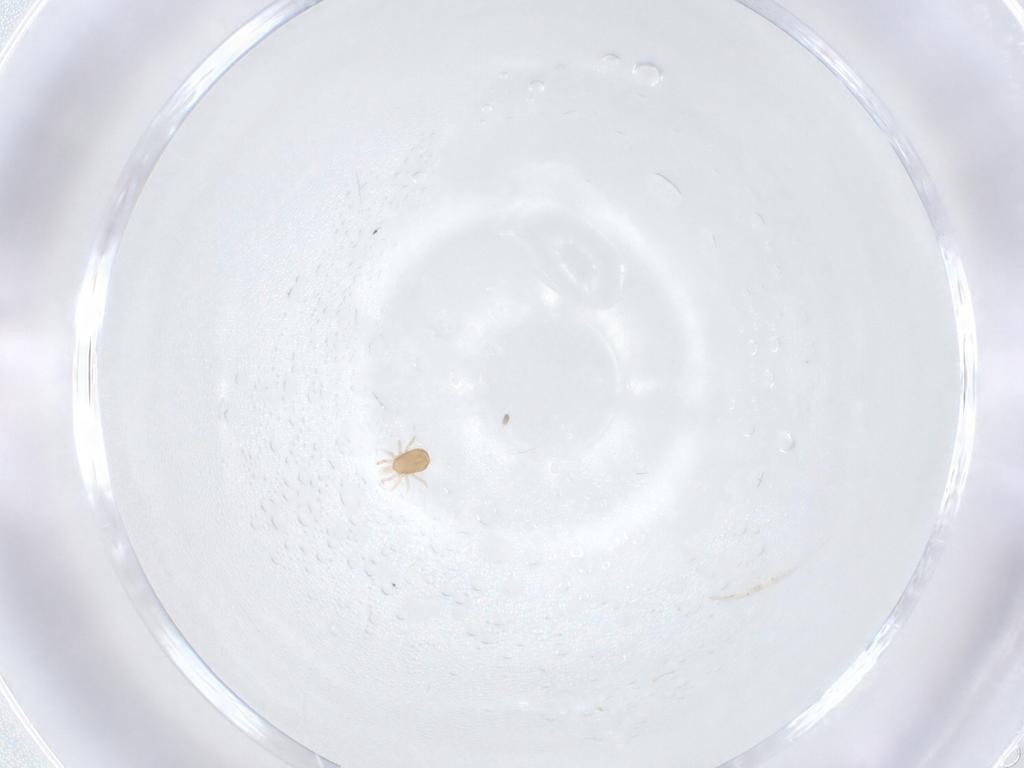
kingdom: Animalia
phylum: Arthropoda
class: Arachnida
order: Mesostigmata
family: Ascidae
